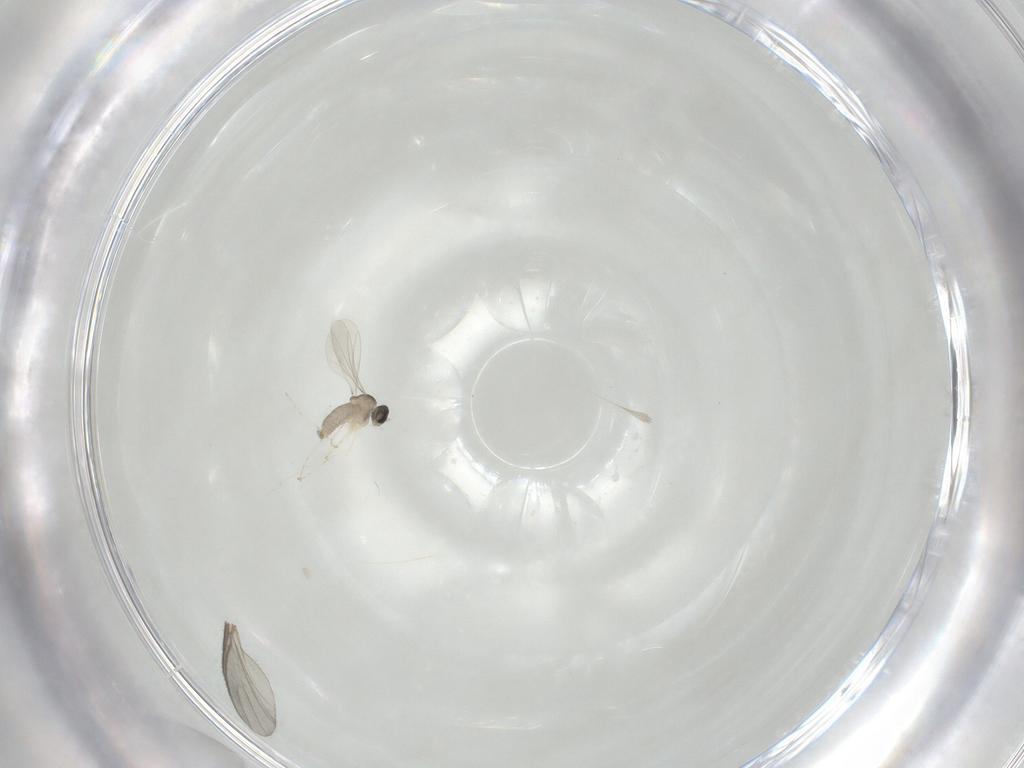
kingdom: Animalia
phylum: Arthropoda
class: Insecta
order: Diptera
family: Cecidomyiidae
